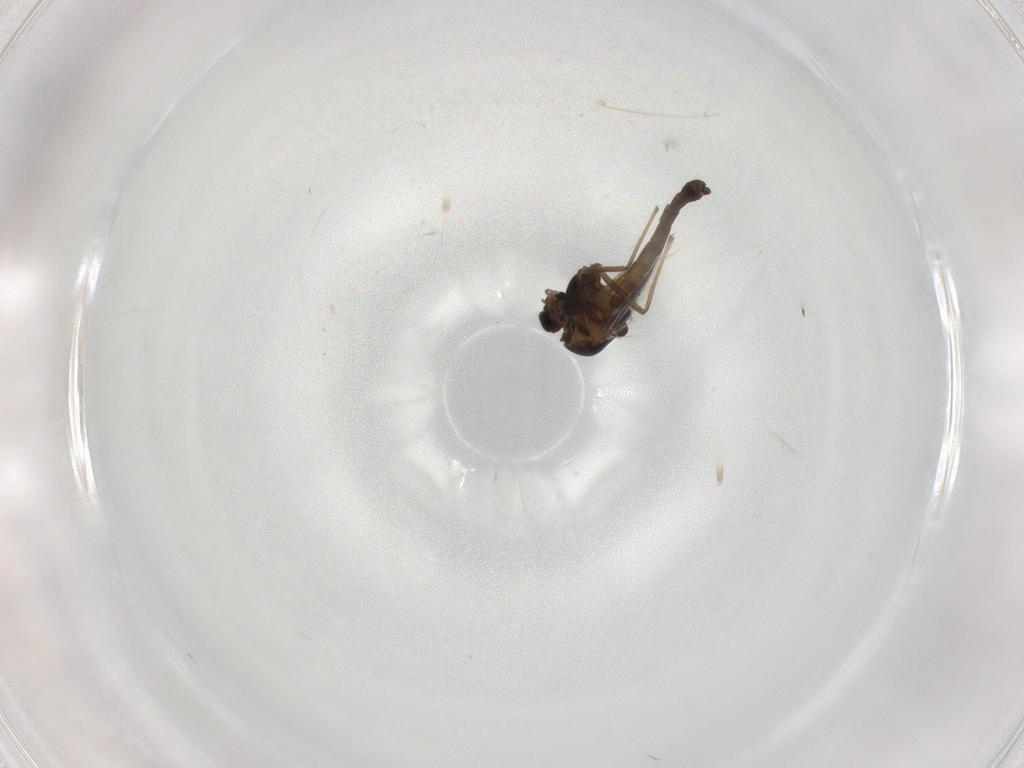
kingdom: Animalia
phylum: Arthropoda
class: Insecta
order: Diptera
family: Chironomidae
